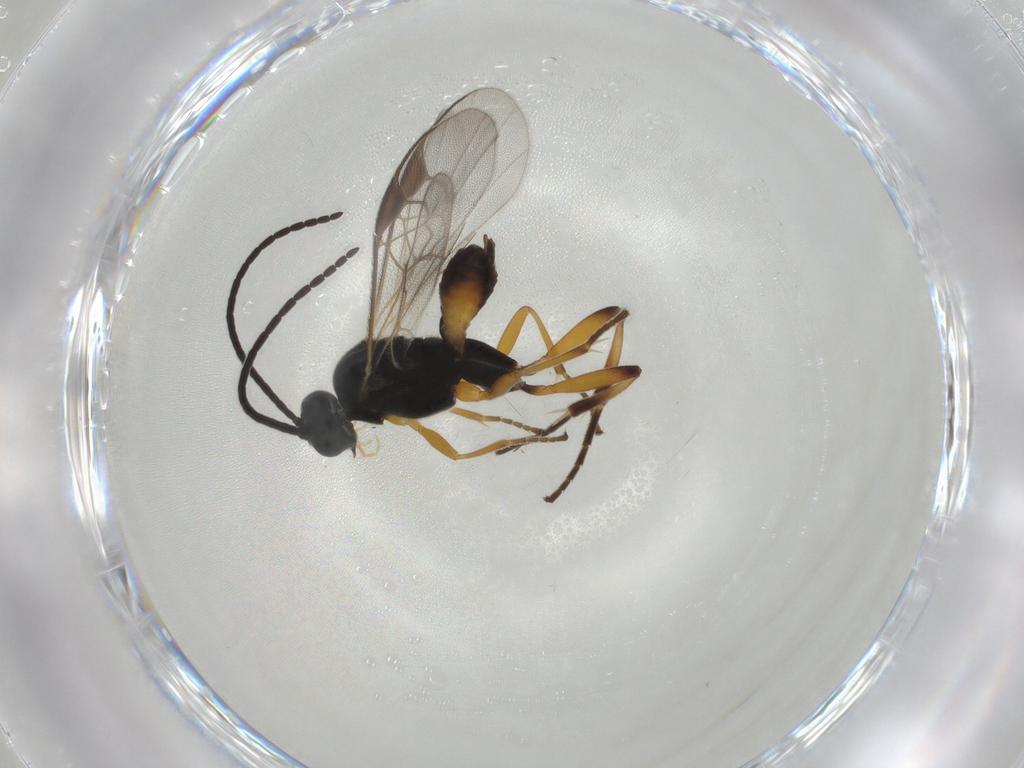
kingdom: Animalia
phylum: Arthropoda
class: Insecta
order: Hymenoptera
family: Braconidae
